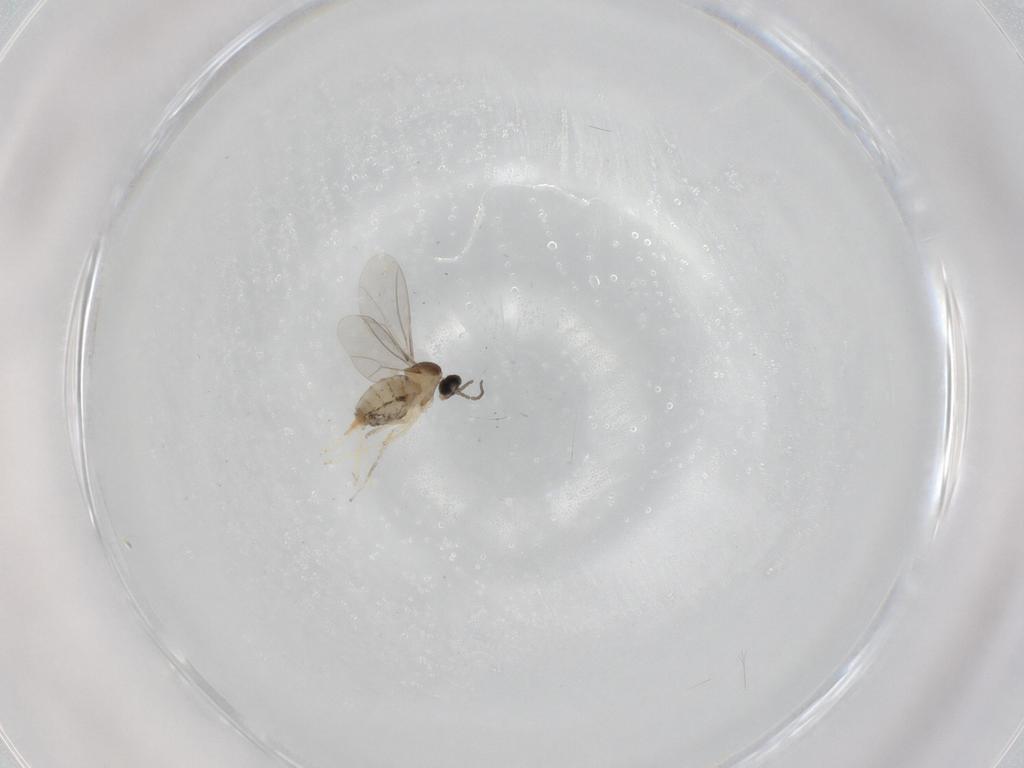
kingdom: Animalia
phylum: Arthropoda
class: Insecta
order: Diptera
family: Cecidomyiidae
